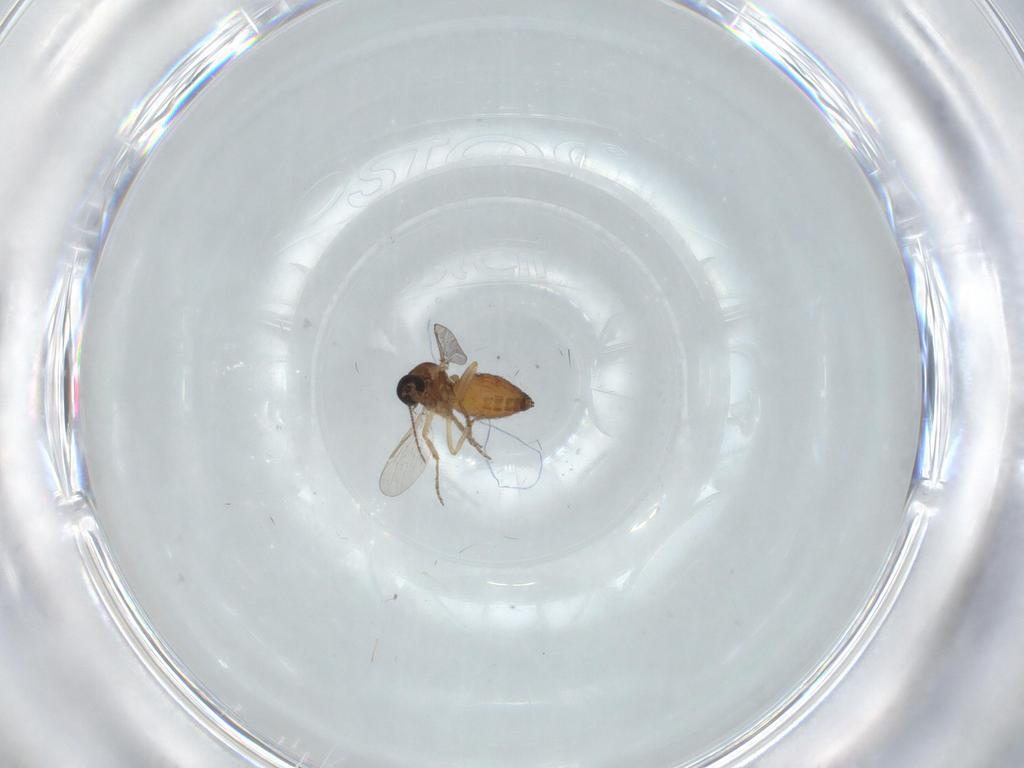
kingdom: Animalia
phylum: Arthropoda
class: Insecta
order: Diptera
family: Ceratopogonidae
